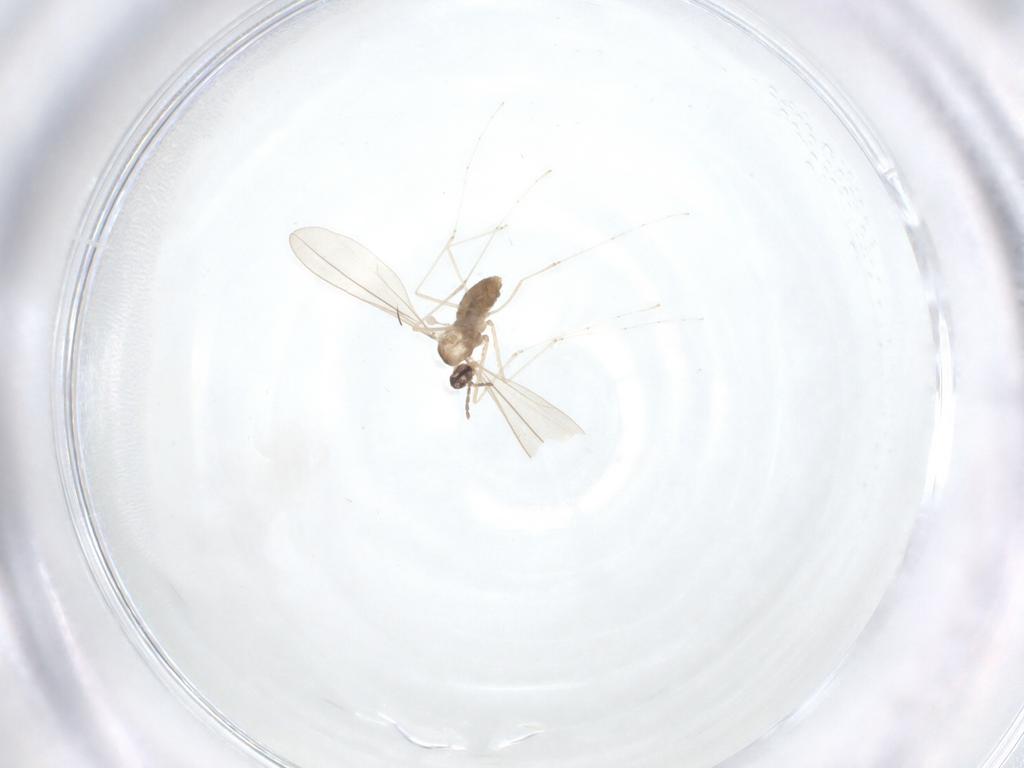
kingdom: Animalia
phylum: Arthropoda
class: Insecta
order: Diptera
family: Cecidomyiidae
